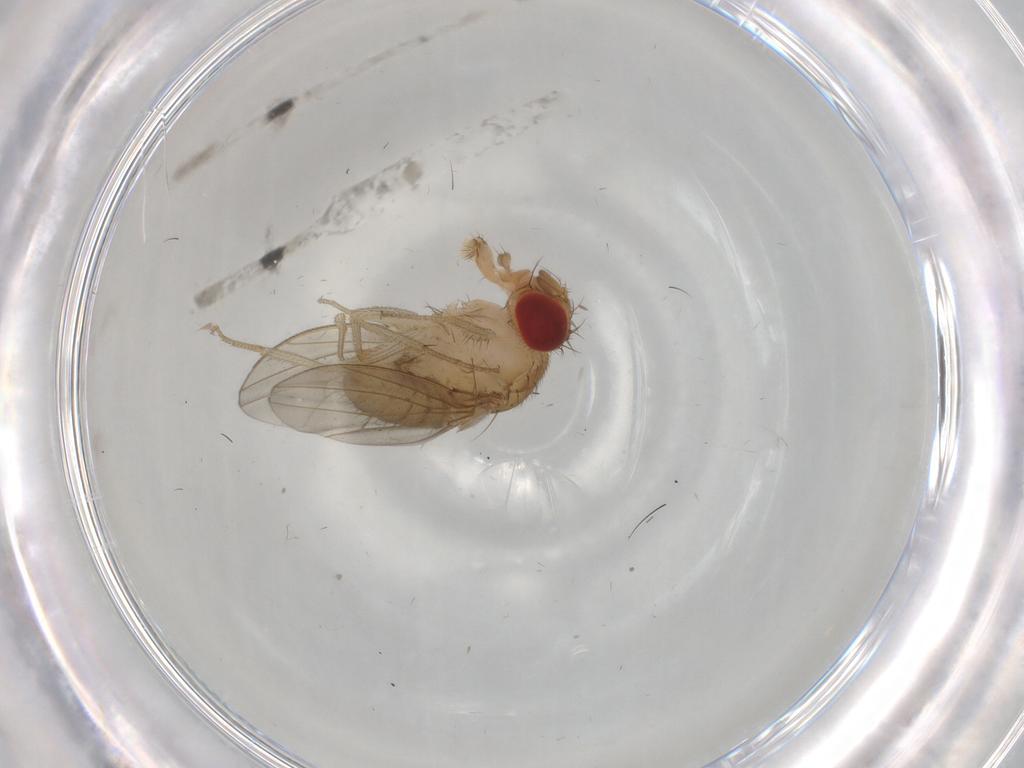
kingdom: Animalia
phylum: Arthropoda
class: Insecta
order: Diptera
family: Drosophilidae
